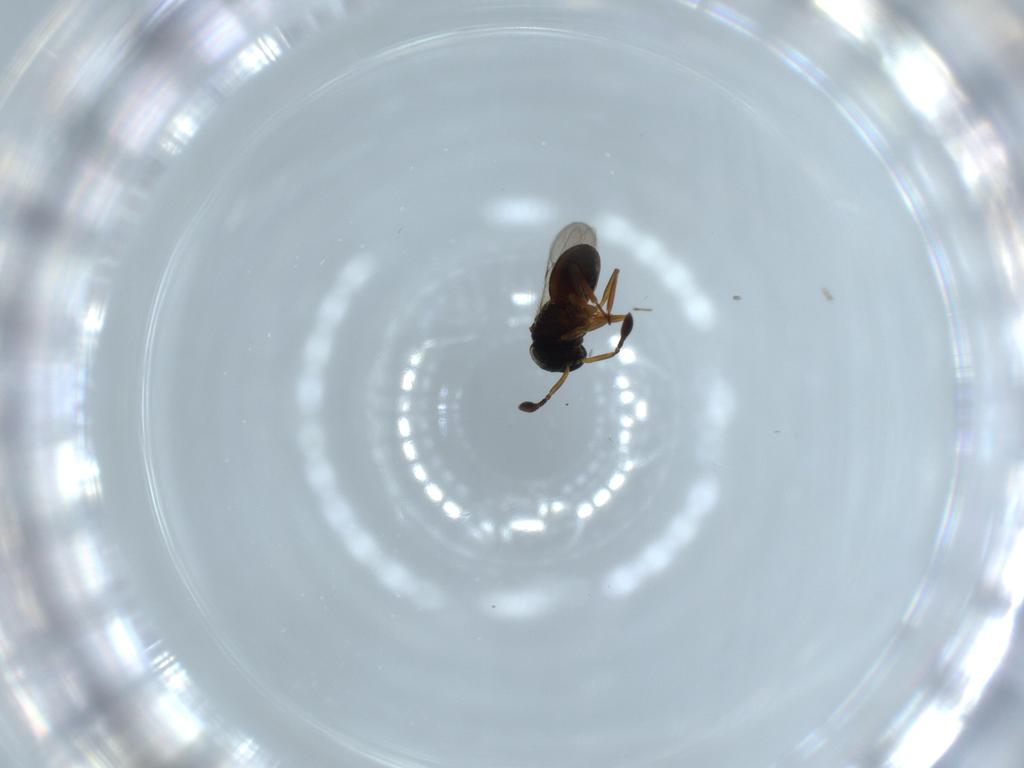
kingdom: Animalia
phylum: Arthropoda
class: Insecta
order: Coleoptera
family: Curculionidae
